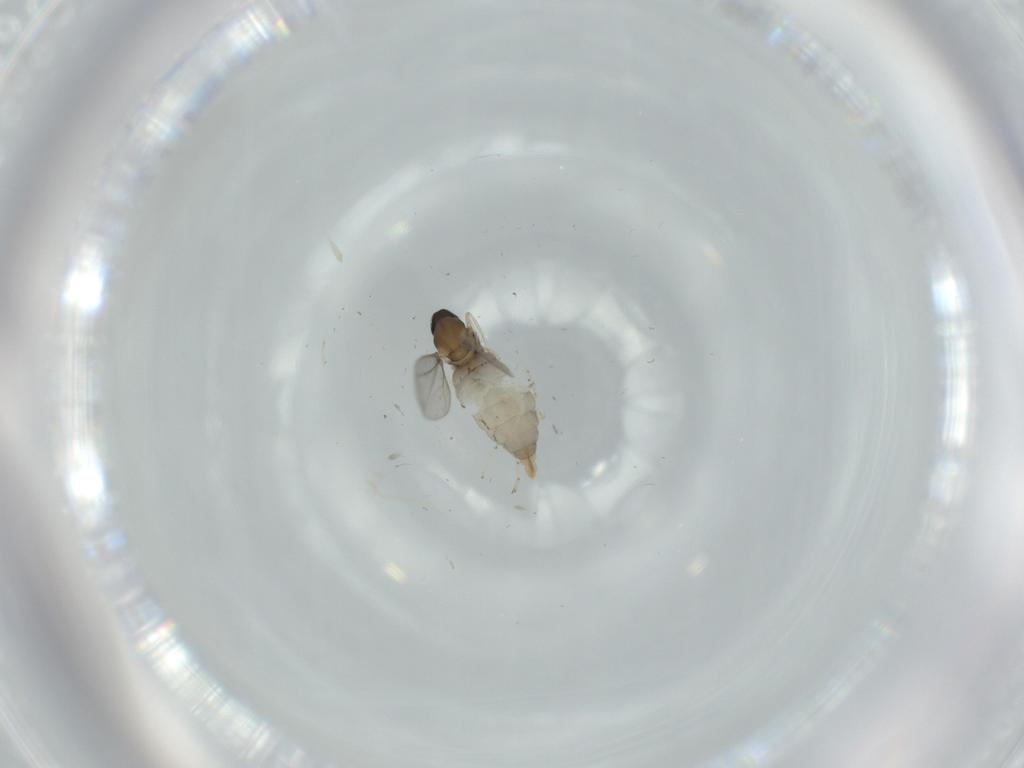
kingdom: Animalia
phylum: Arthropoda
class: Insecta
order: Diptera
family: Cecidomyiidae
